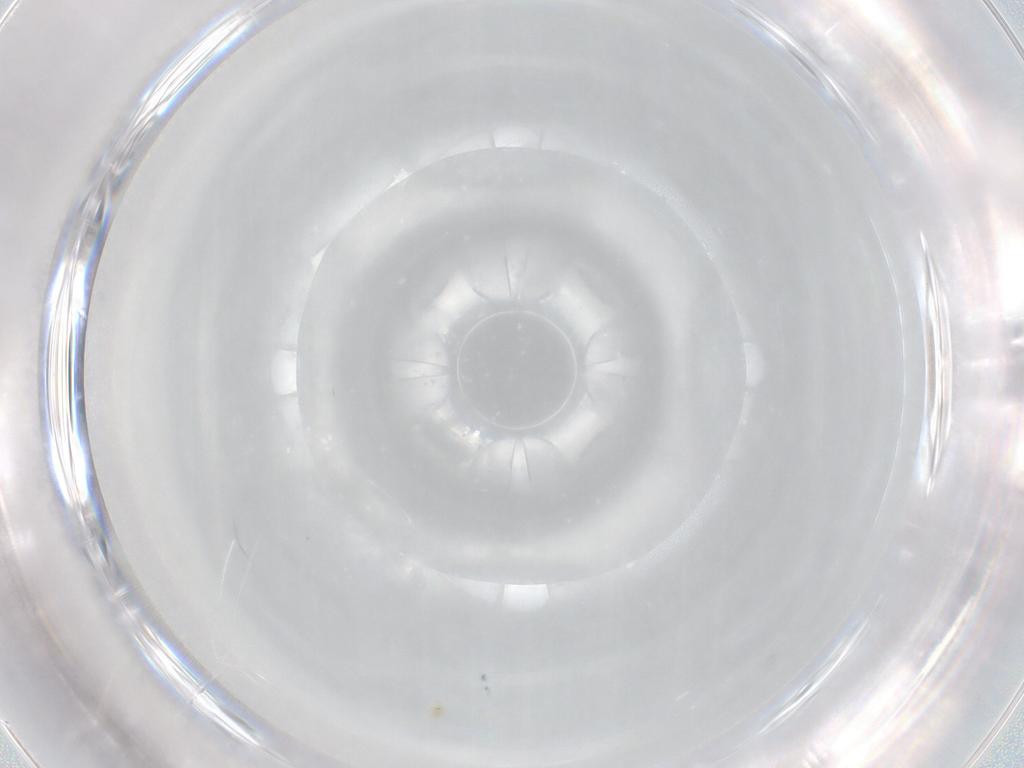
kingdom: Animalia
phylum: Arthropoda
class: Arachnida
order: Trombidiformes
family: Eupodidae
